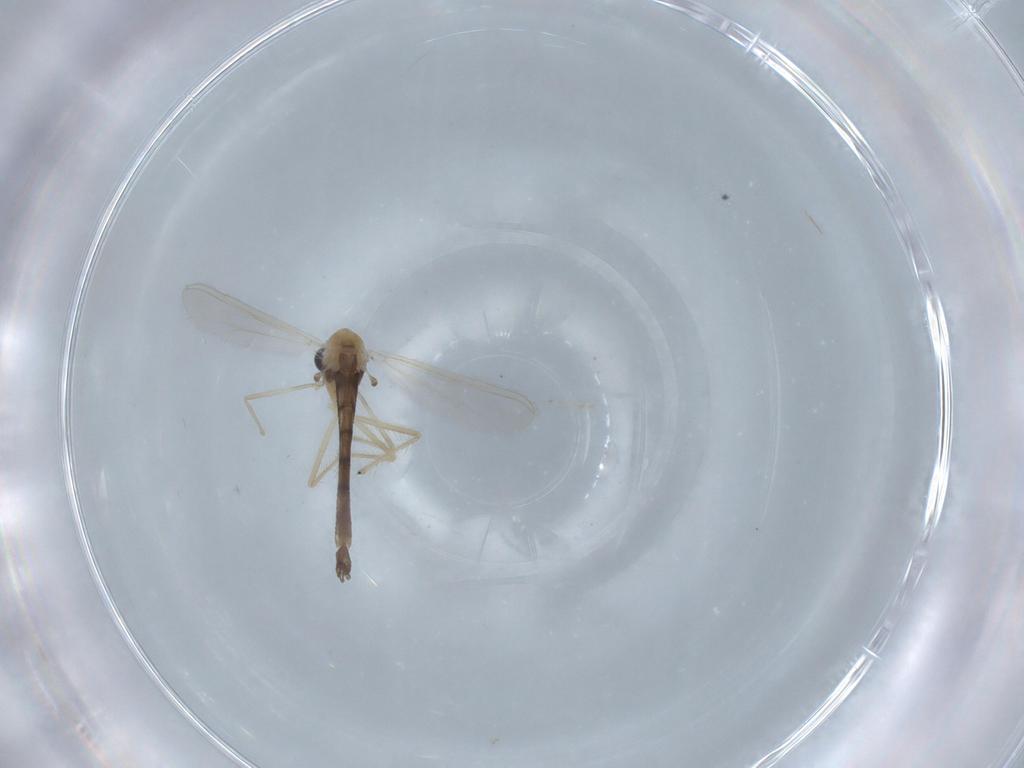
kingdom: Animalia
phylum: Arthropoda
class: Insecta
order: Diptera
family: Chironomidae
